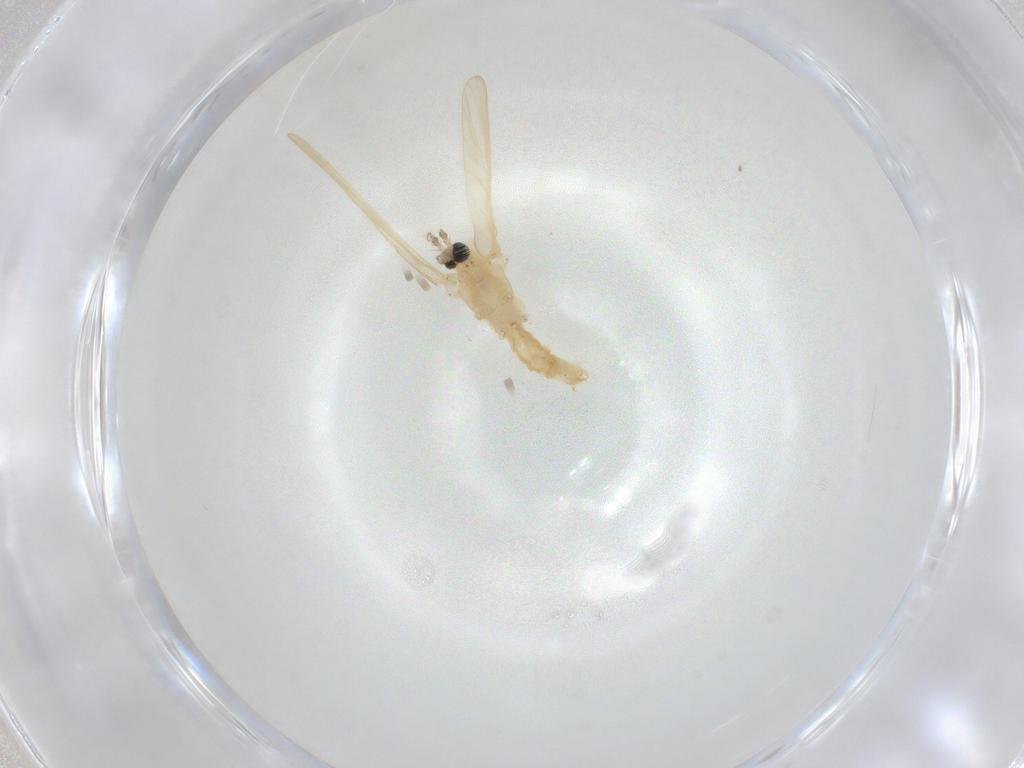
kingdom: Animalia
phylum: Arthropoda
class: Insecta
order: Diptera
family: Limoniidae
